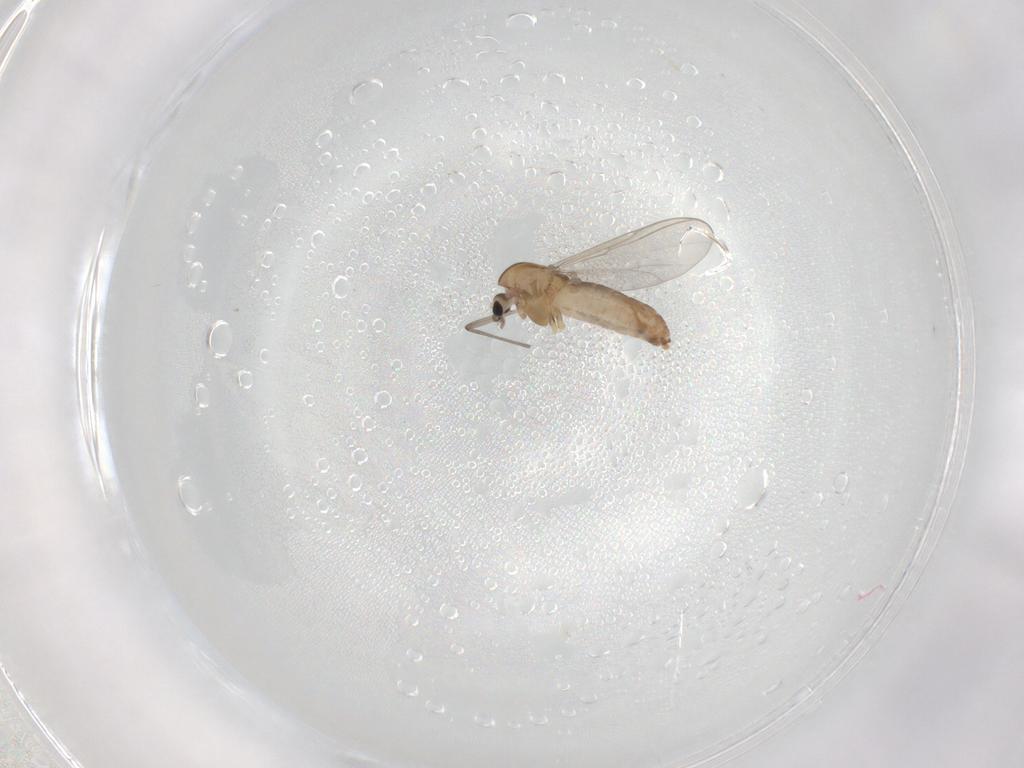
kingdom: Animalia
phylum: Arthropoda
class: Insecta
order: Diptera
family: Chironomidae
